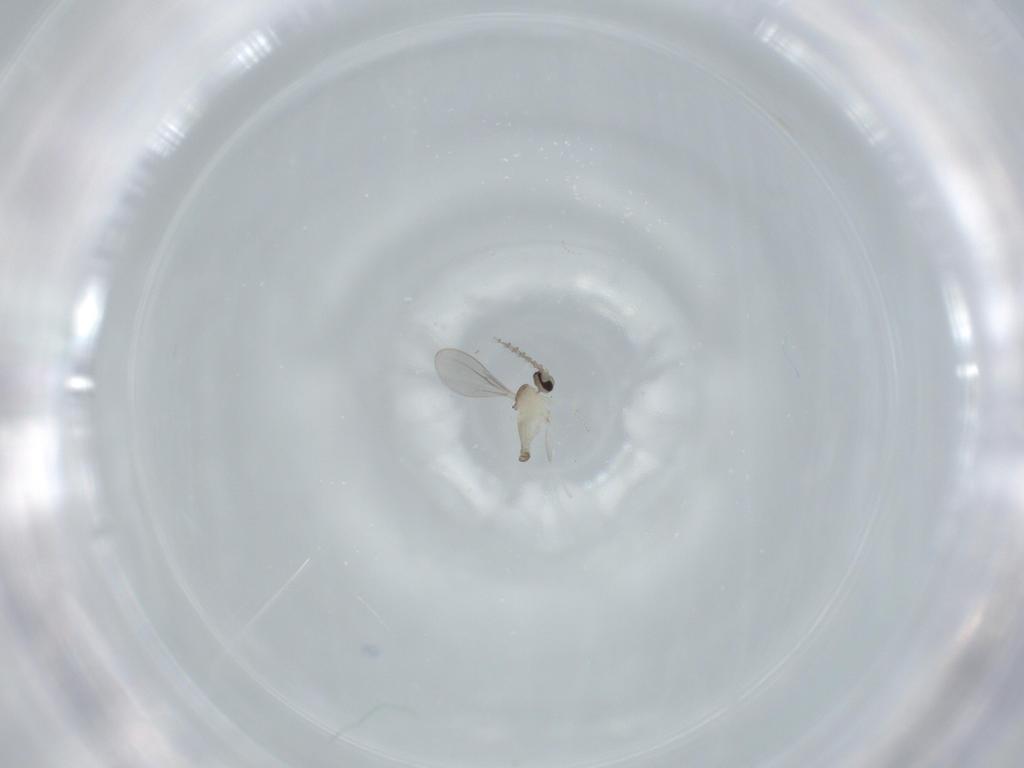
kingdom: Animalia
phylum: Arthropoda
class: Insecta
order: Diptera
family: Cecidomyiidae
